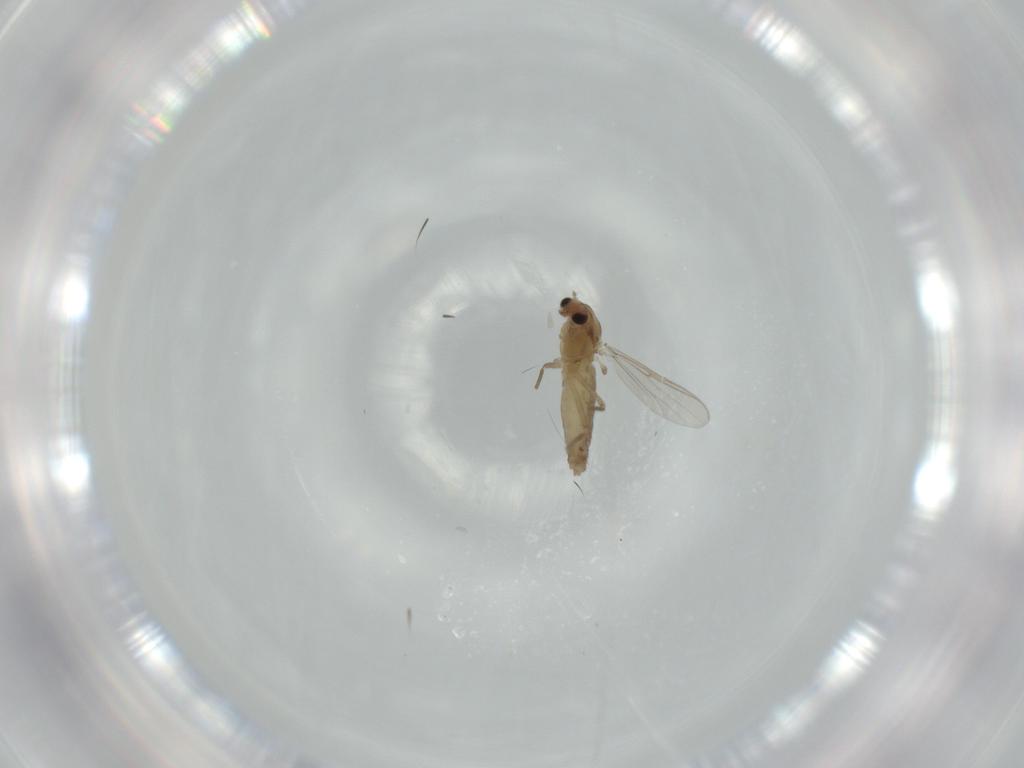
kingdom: Animalia
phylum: Arthropoda
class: Insecta
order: Diptera
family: Chironomidae
